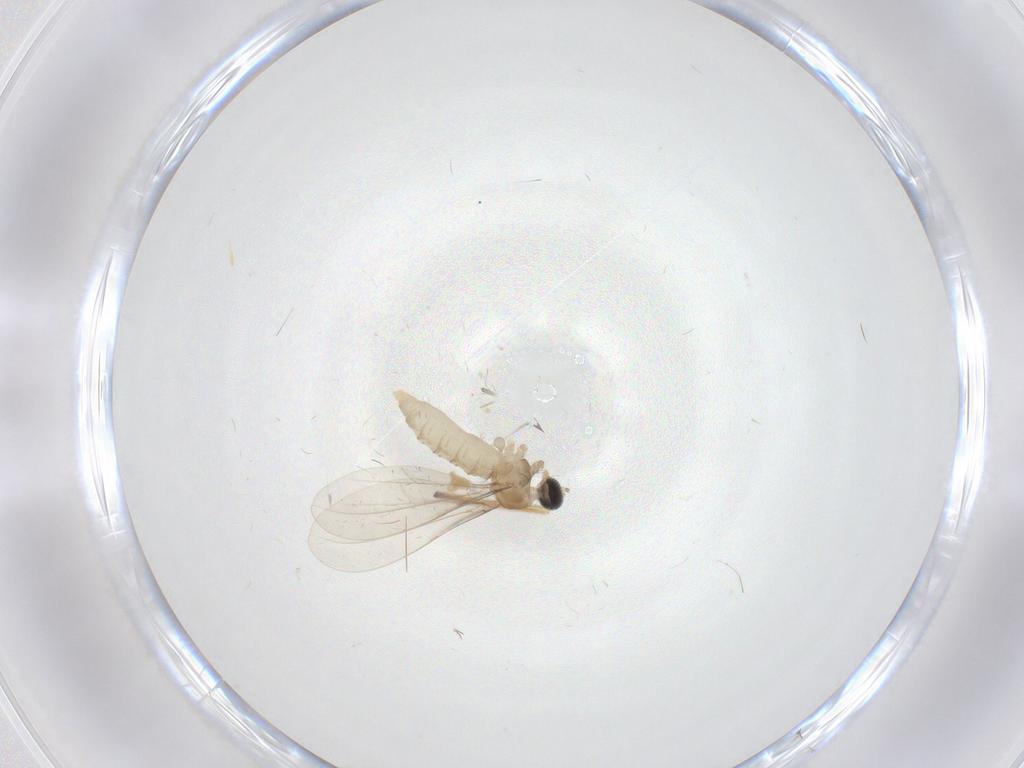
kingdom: Animalia
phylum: Arthropoda
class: Insecta
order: Diptera
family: Cecidomyiidae
